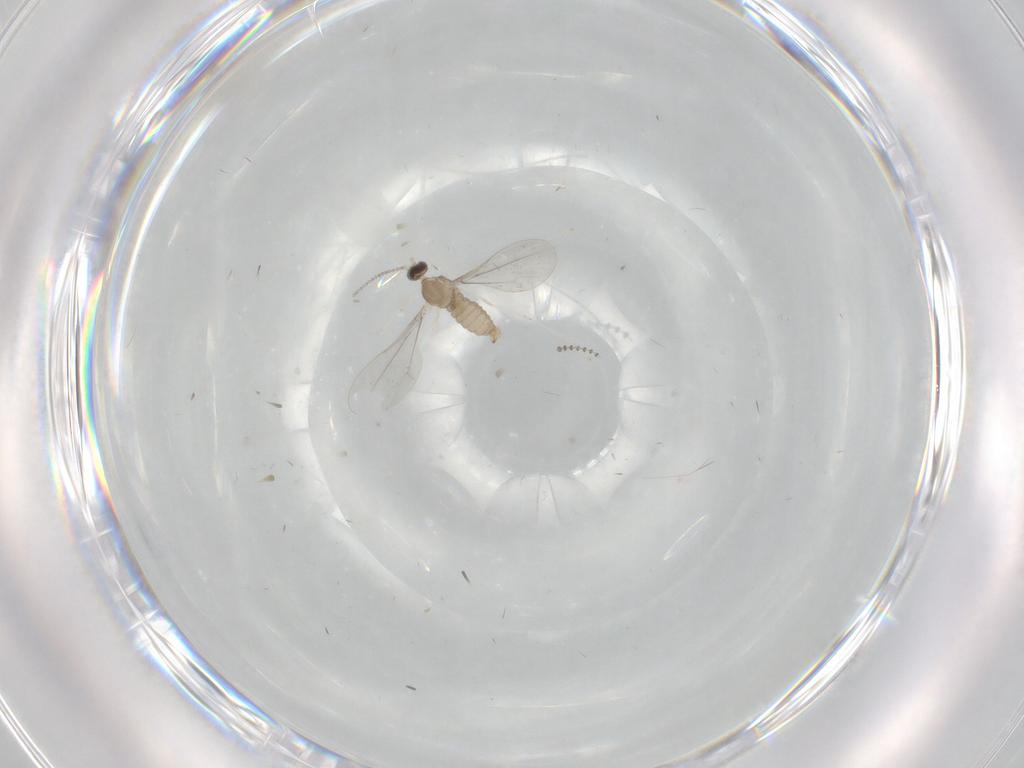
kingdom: Animalia
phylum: Arthropoda
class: Insecta
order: Diptera
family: Cecidomyiidae
